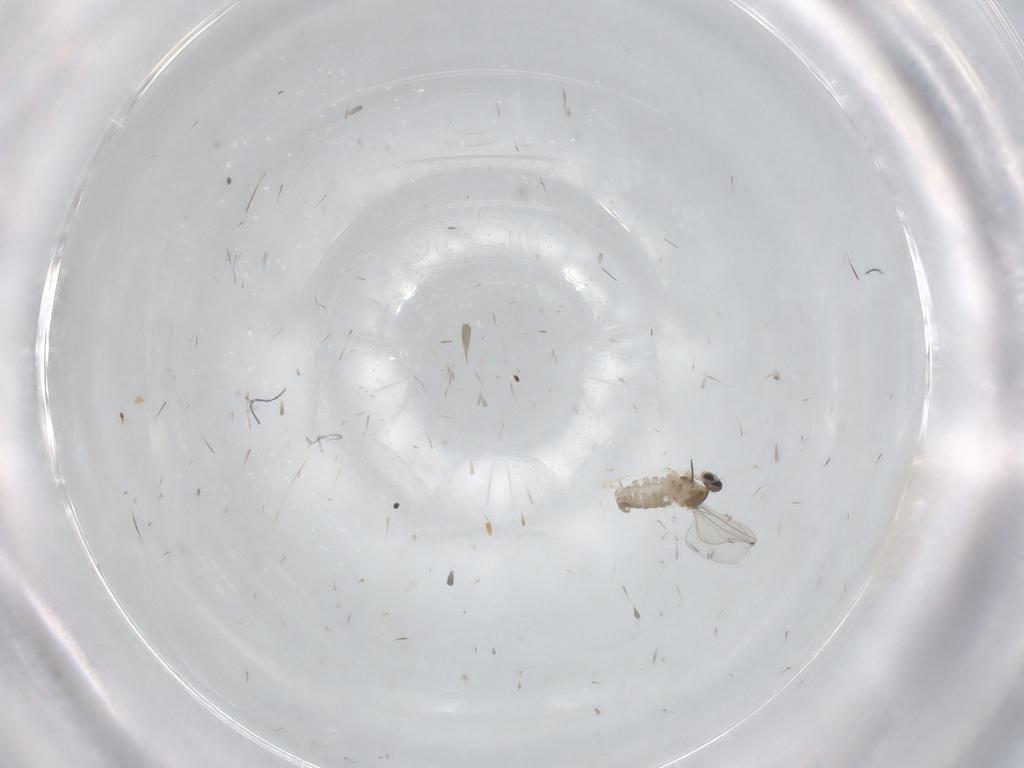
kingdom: Animalia
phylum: Arthropoda
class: Insecta
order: Diptera
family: Cecidomyiidae
